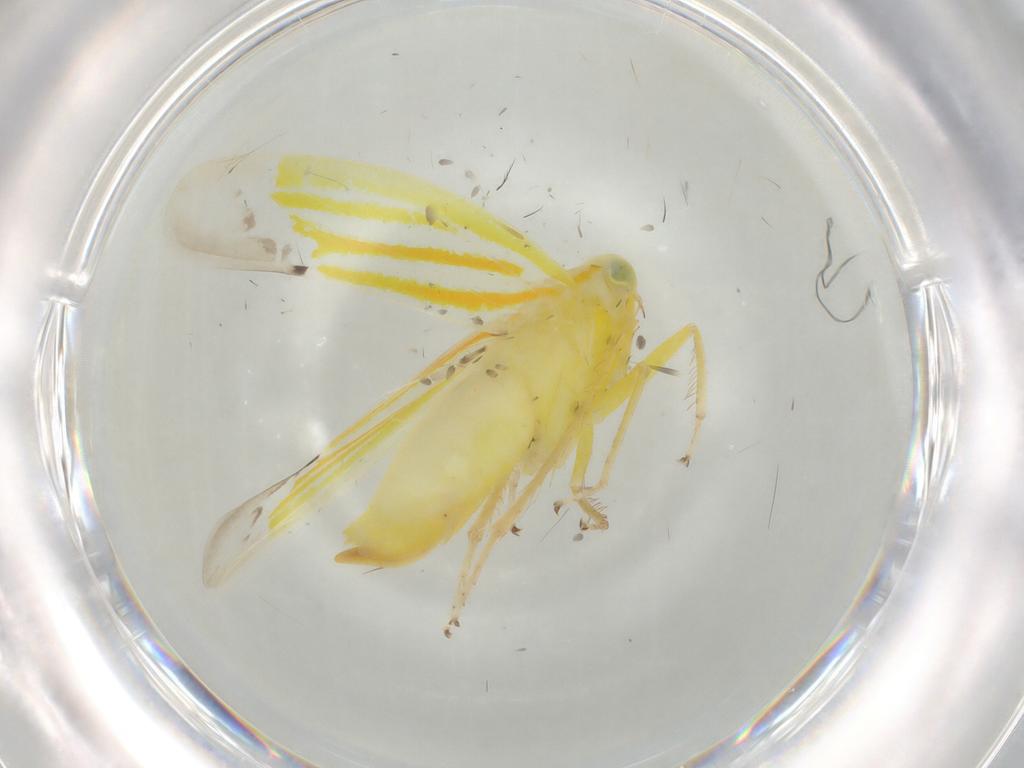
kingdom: Animalia
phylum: Arthropoda
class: Insecta
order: Hemiptera
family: Cicadellidae
